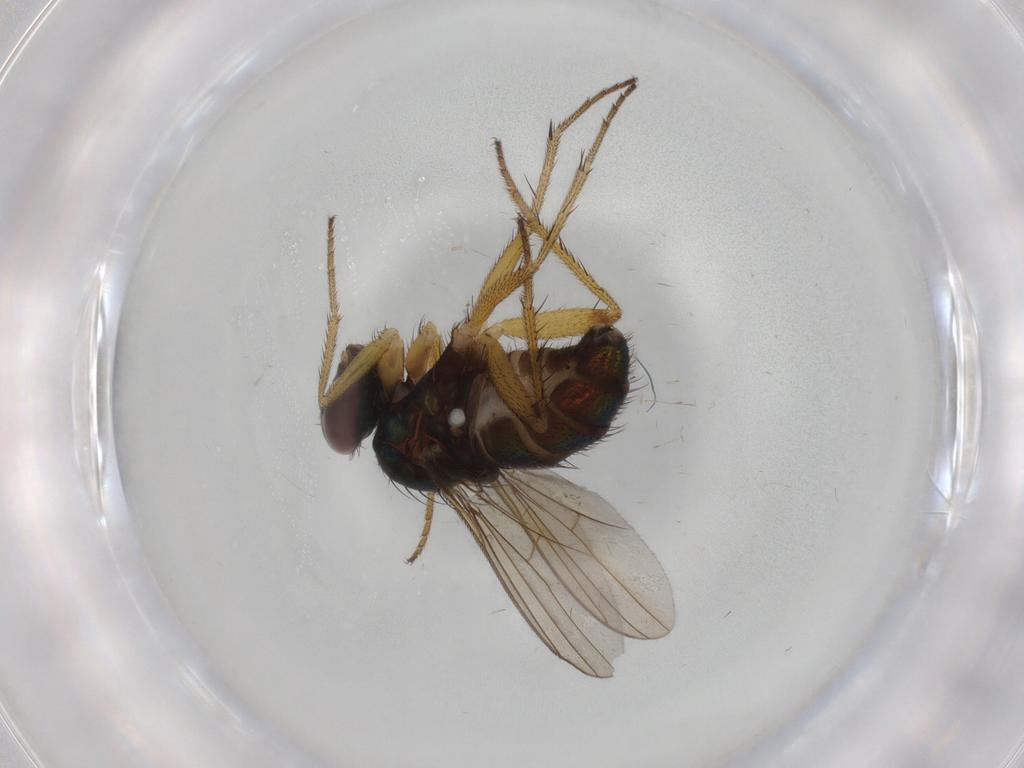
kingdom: Animalia
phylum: Arthropoda
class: Insecta
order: Diptera
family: Dolichopodidae
